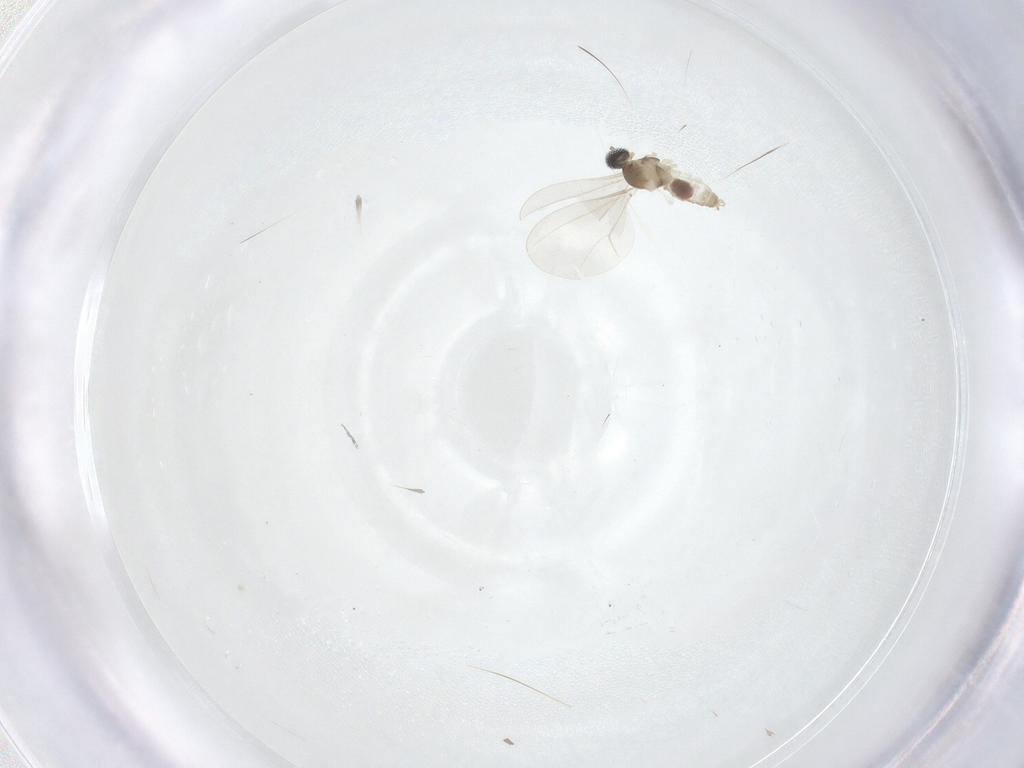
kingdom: Animalia
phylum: Arthropoda
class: Insecta
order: Diptera
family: Cecidomyiidae
